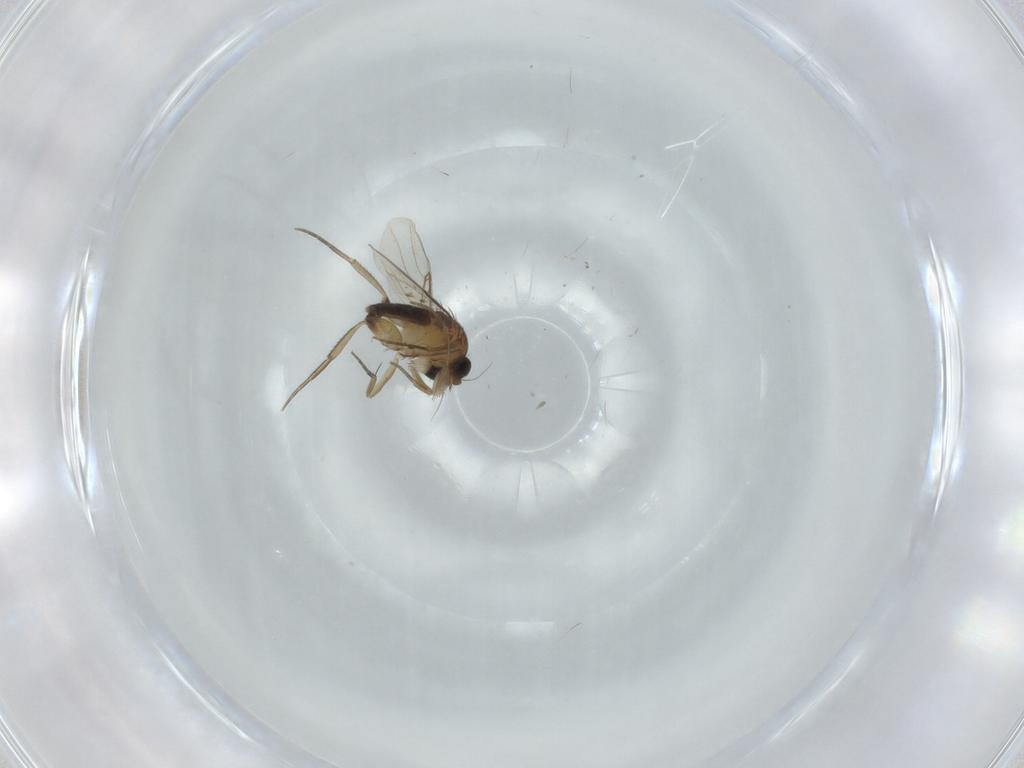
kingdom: Animalia
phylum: Arthropoda
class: Insecta
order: Diptera
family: Phoridae
